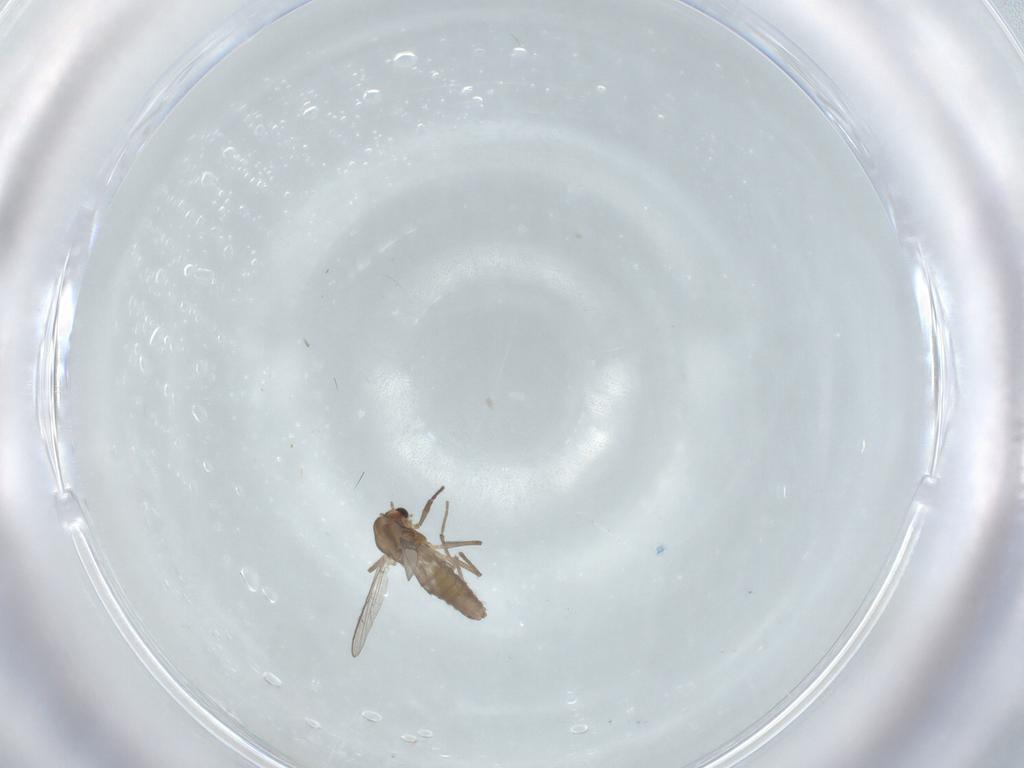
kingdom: Animalia
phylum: Arthropoda
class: Insecta
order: Diptera
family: Chironomidae
